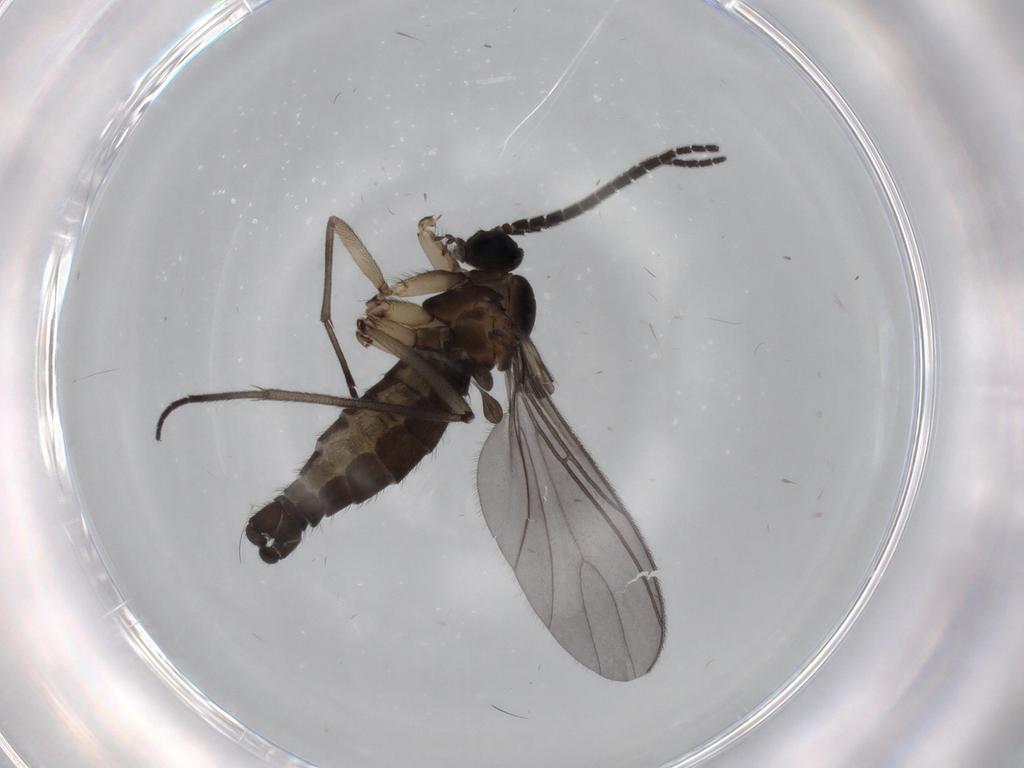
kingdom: Animalia
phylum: Arthropoda
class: Insecta
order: Diptera
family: Sciaridae
